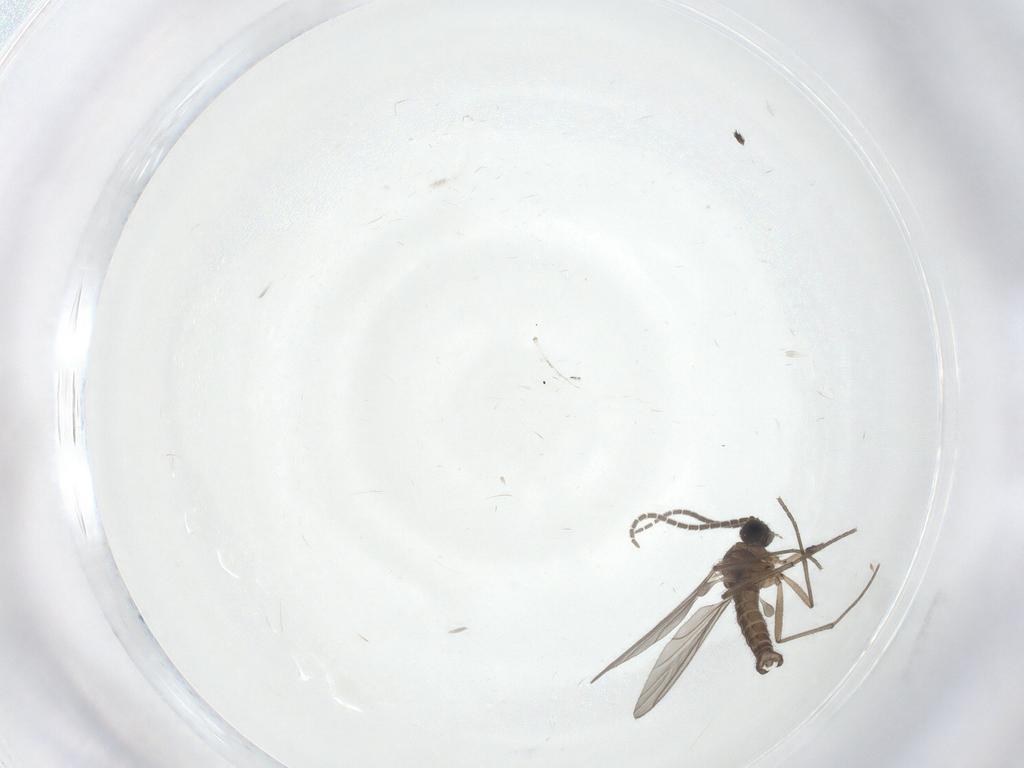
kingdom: Animalia
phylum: Arthropoda
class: Insecta
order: Diptera
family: Sciaridae
